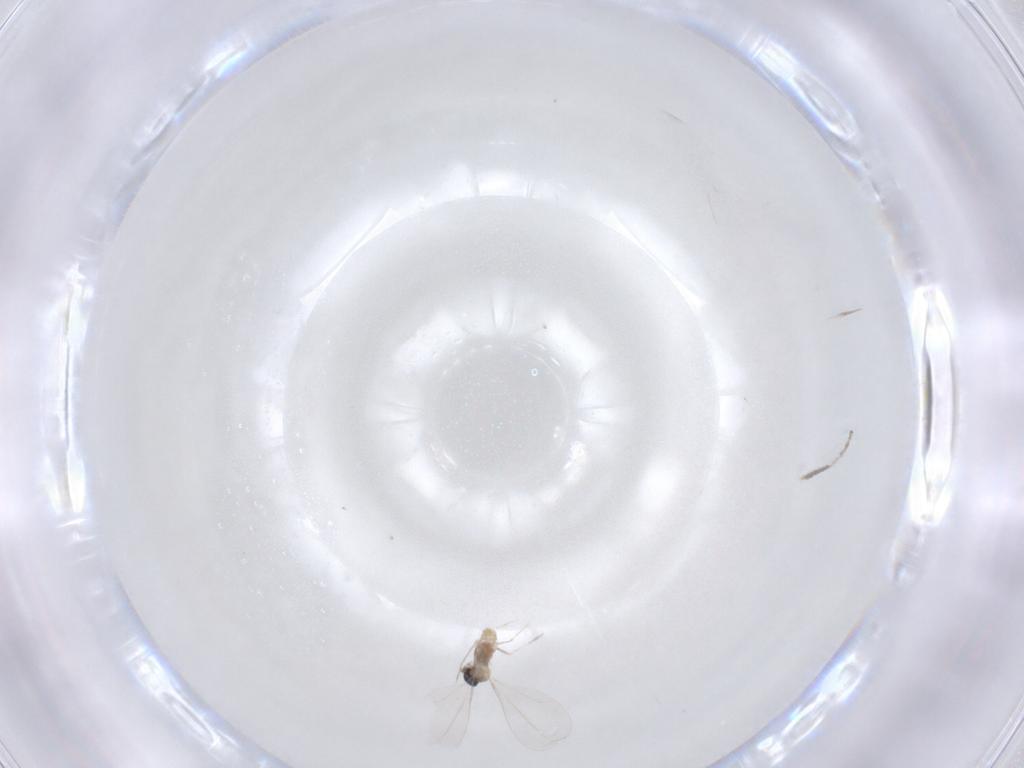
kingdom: Animalia
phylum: Arthropoda
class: Insecta
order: Diptera
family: Cecidomyiidae
